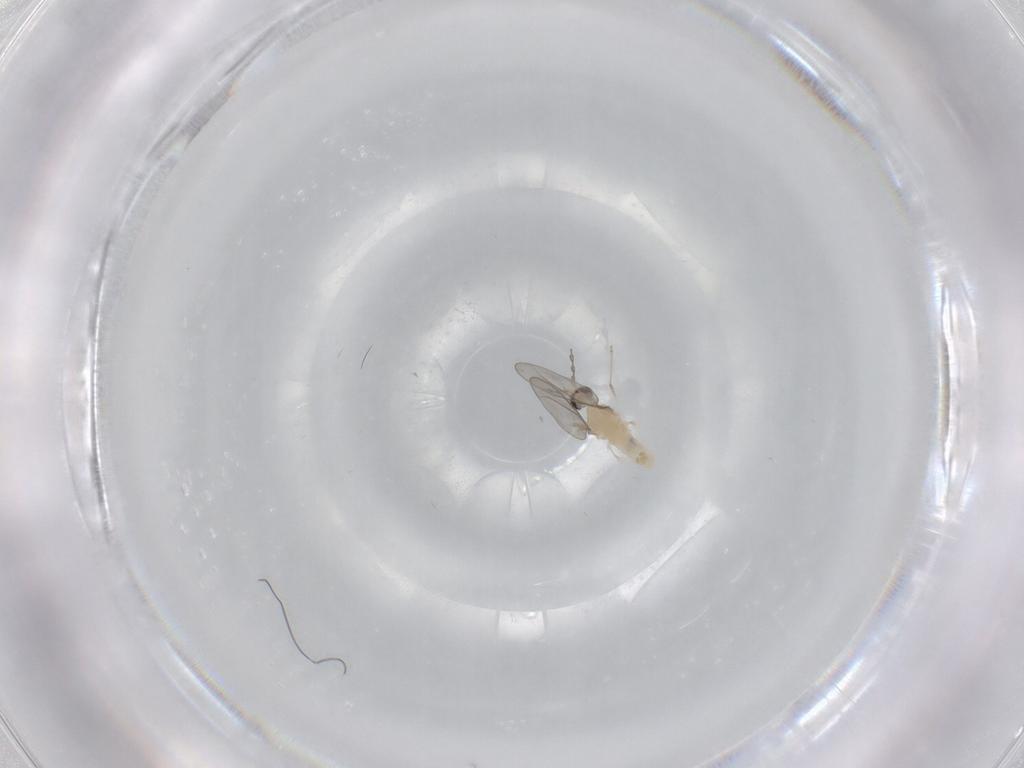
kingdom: Animalia
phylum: Arthropoda
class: Insecta
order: Diptera
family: Cecidomyiidae
